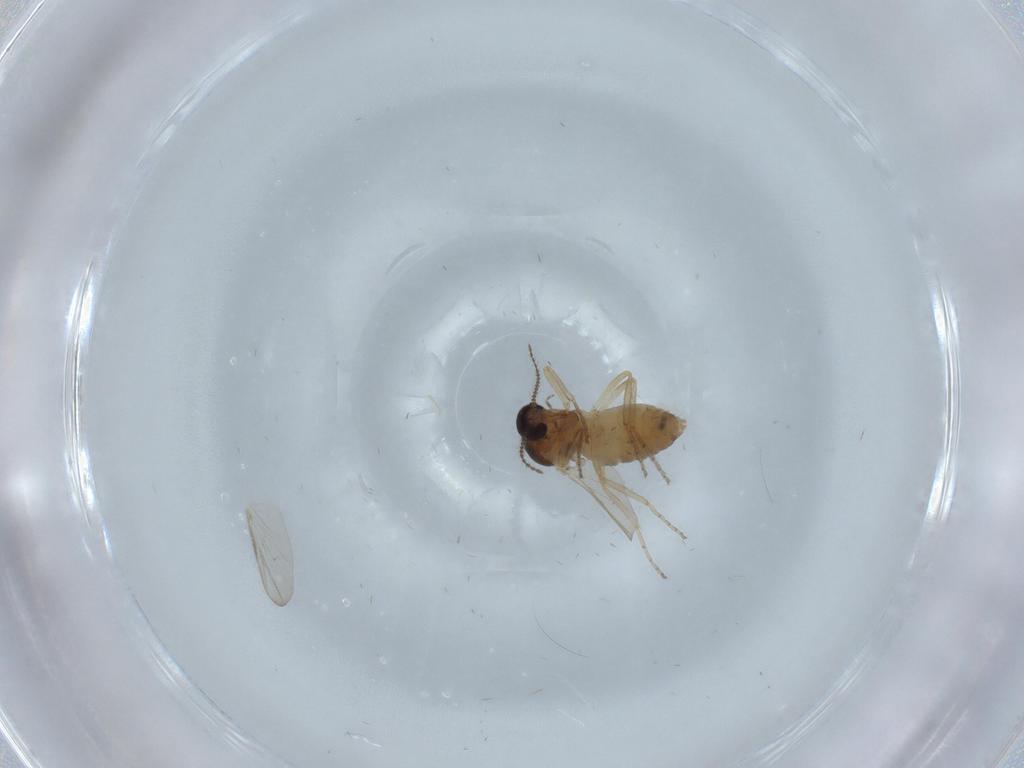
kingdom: Animalia
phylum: Arthropoda
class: Insecta
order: Diptera
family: Ceratopogonidae
